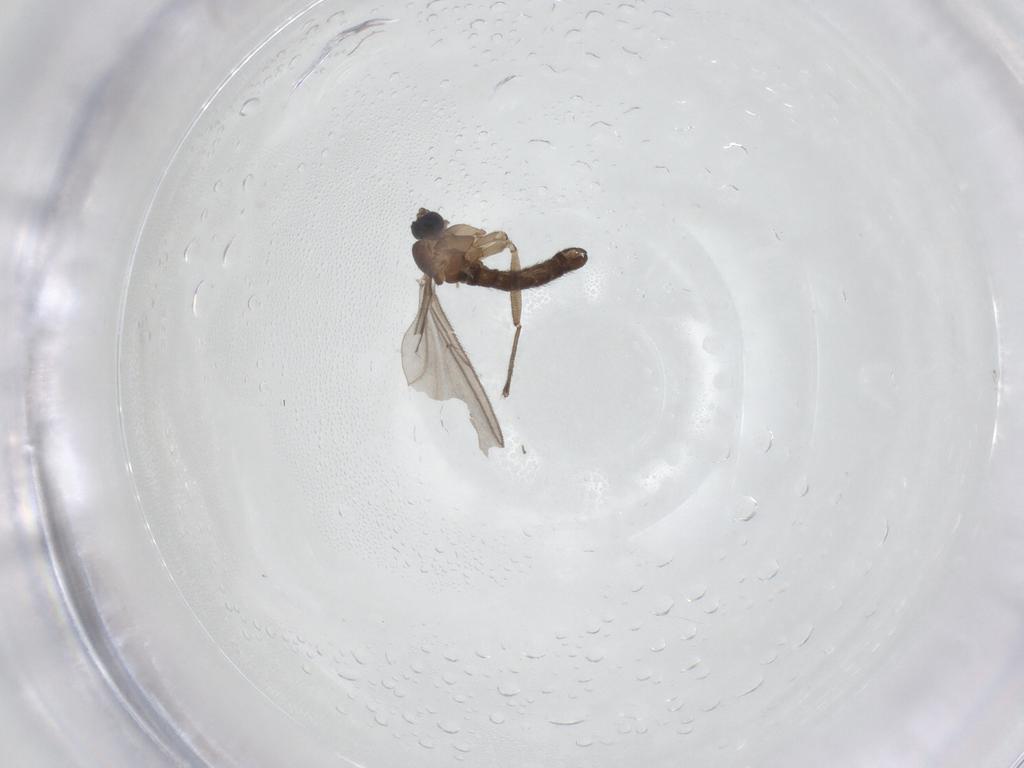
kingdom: Animalia
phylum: Arthropoda
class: Insecta
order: Diptera
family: Sciaridae
